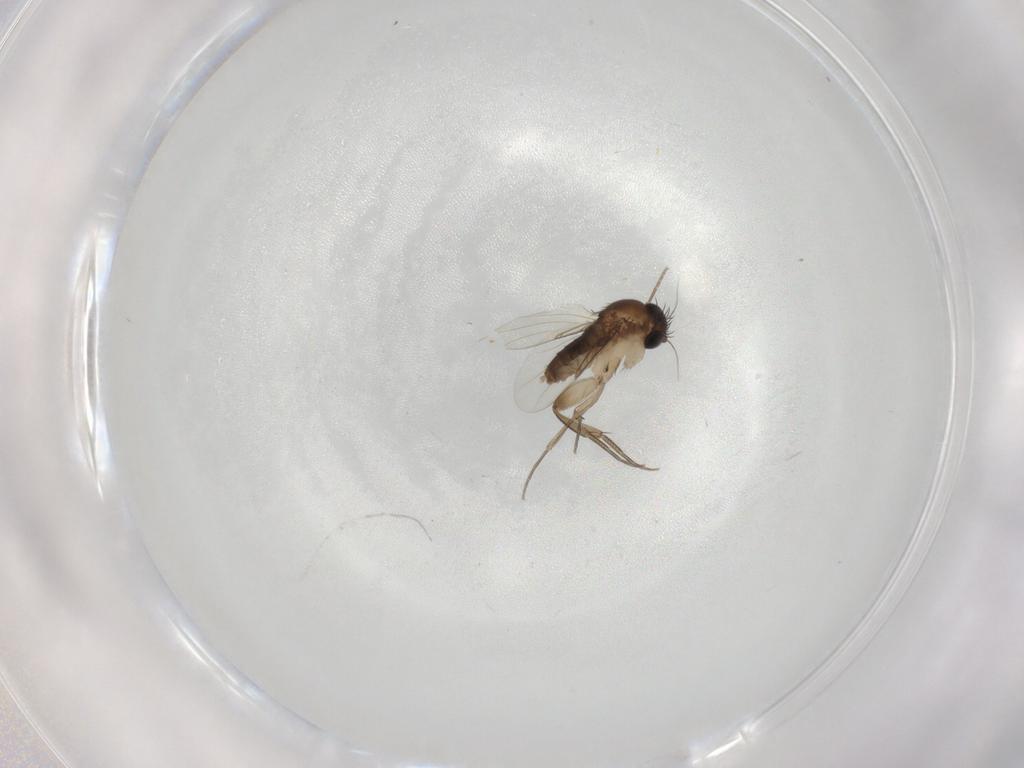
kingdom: Animalia
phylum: Arthropoda
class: Insecta
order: Diptera
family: Phoridae
